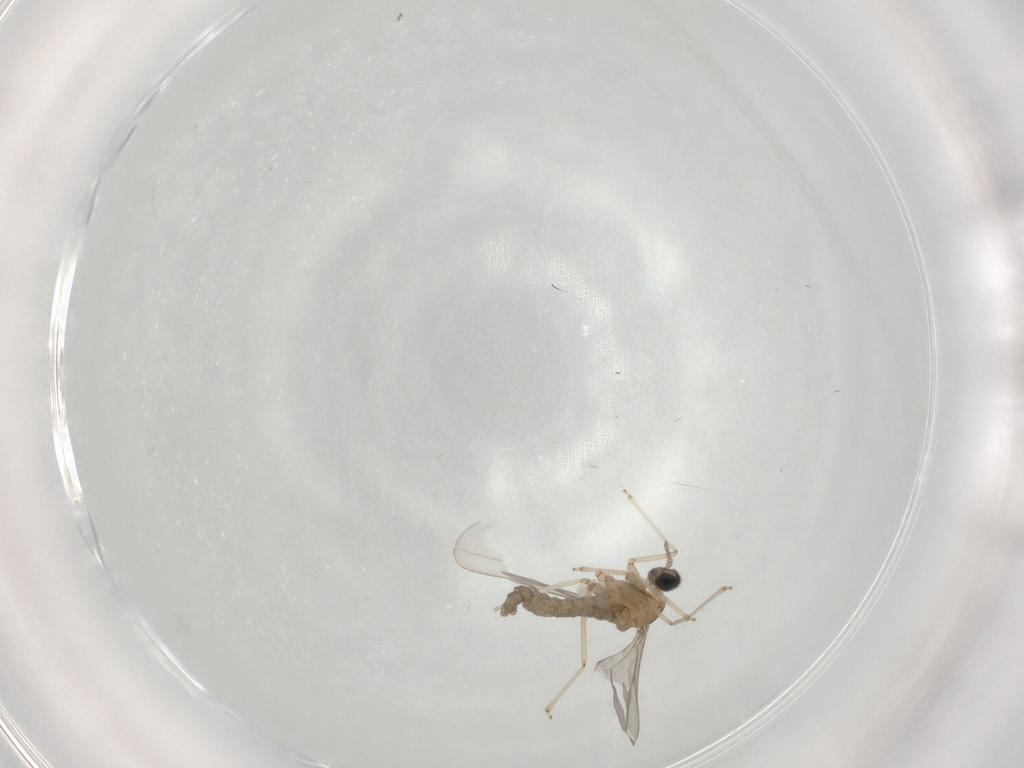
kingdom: Animalia
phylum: Arthropoda
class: Insecta
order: Diptera
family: Cecidomyiidae
